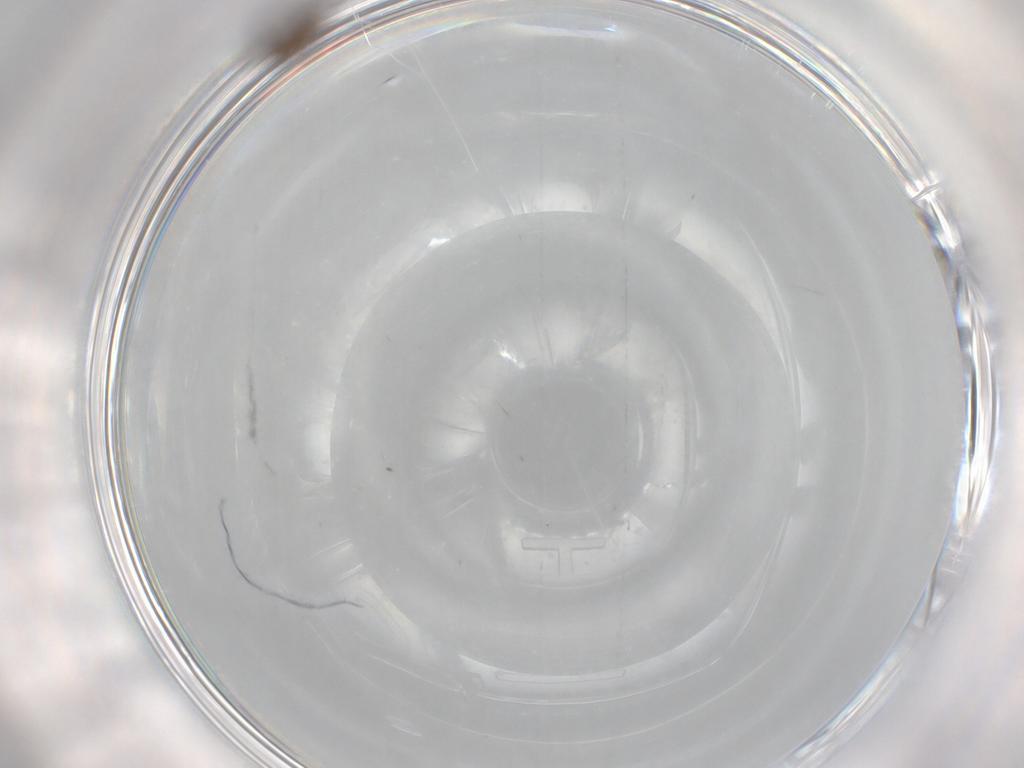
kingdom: Animalia
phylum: Arthropoda
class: Insecta
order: Hymenoptera
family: Mymaridae
